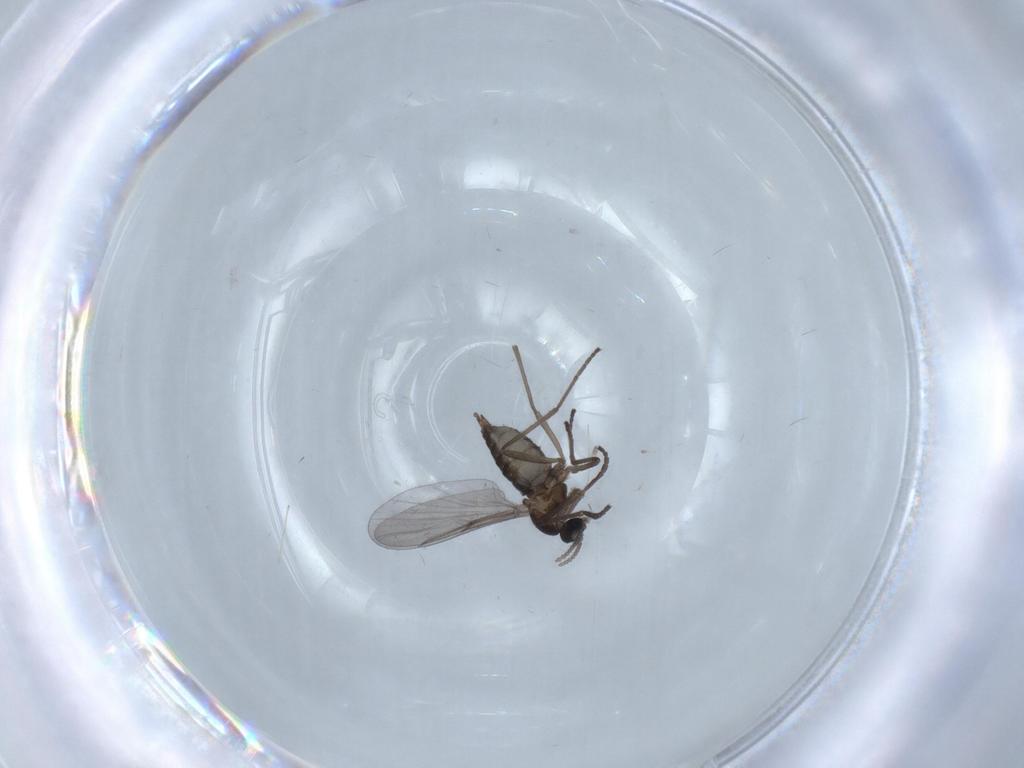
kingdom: Animalia
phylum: Arthropoda
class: Insecta
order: Diptera
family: Cecidomyiidae
